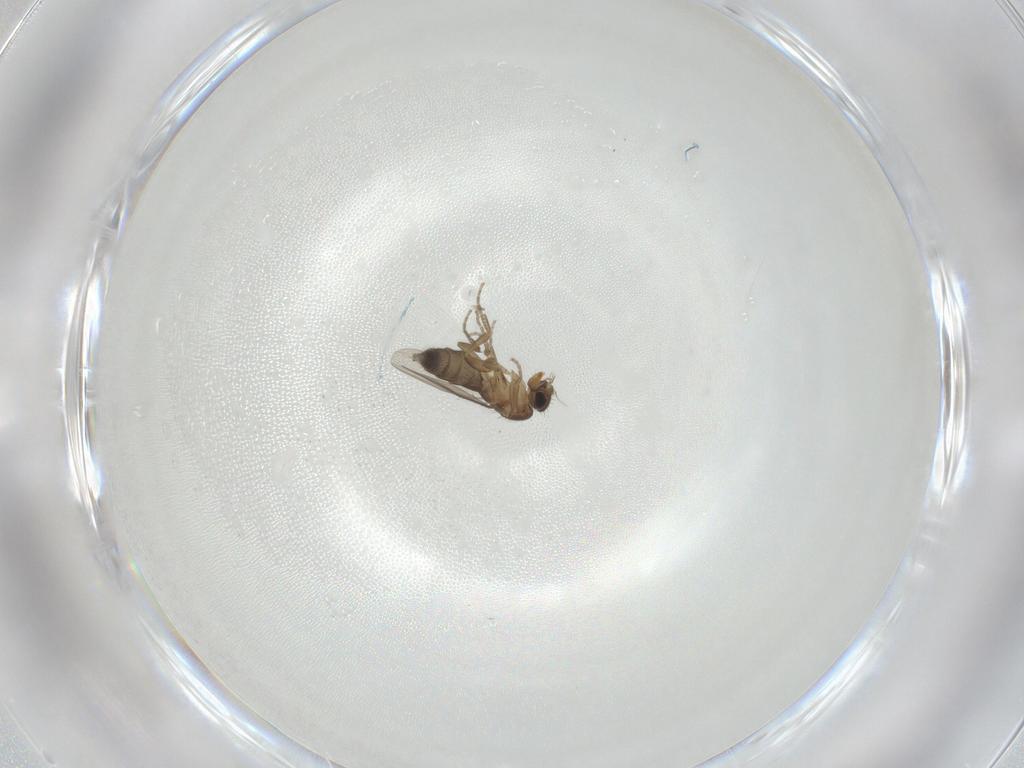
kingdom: Animalia
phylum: Arthropoda
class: Insecta
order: Diptera
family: Phoridae
